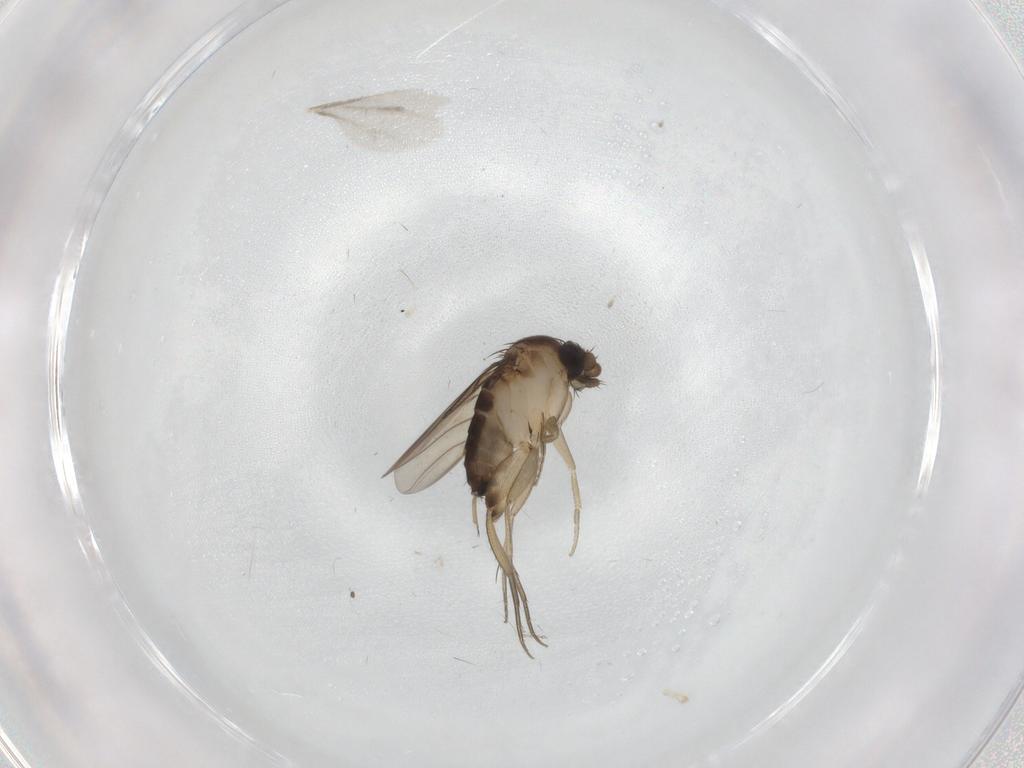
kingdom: Animalia
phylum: Arthropoda
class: Insecta
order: Diptera
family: Phoridae
